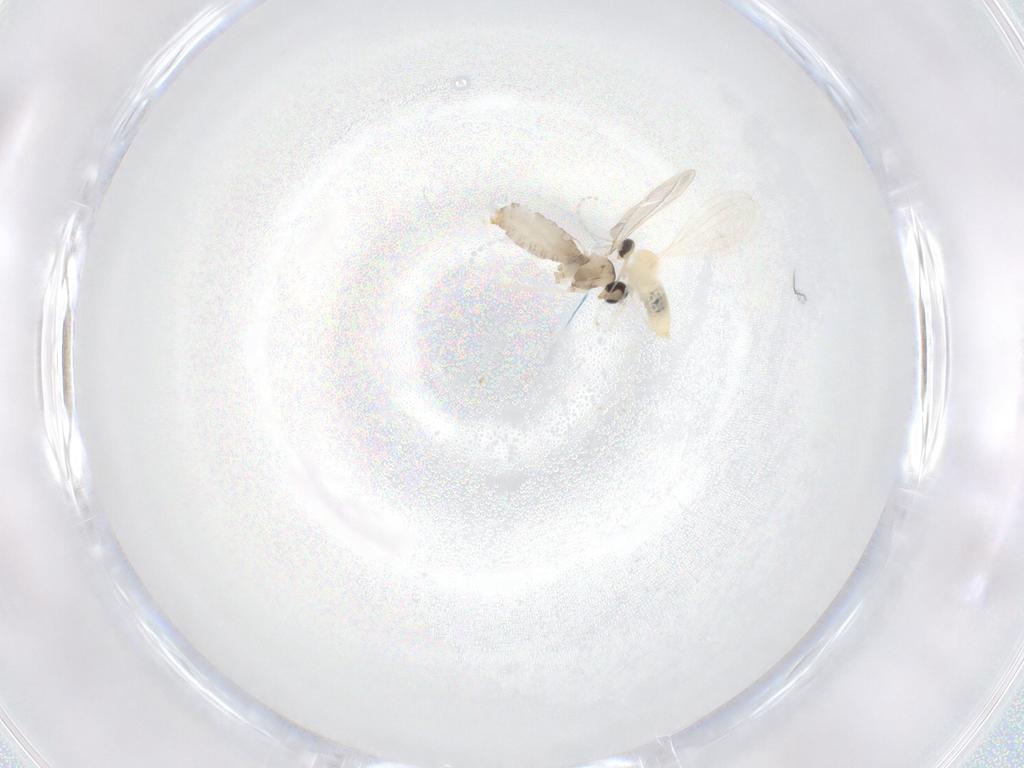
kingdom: Animalia
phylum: Arthropoda
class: Insecta
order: Diptera
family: Cecidomyiidae
